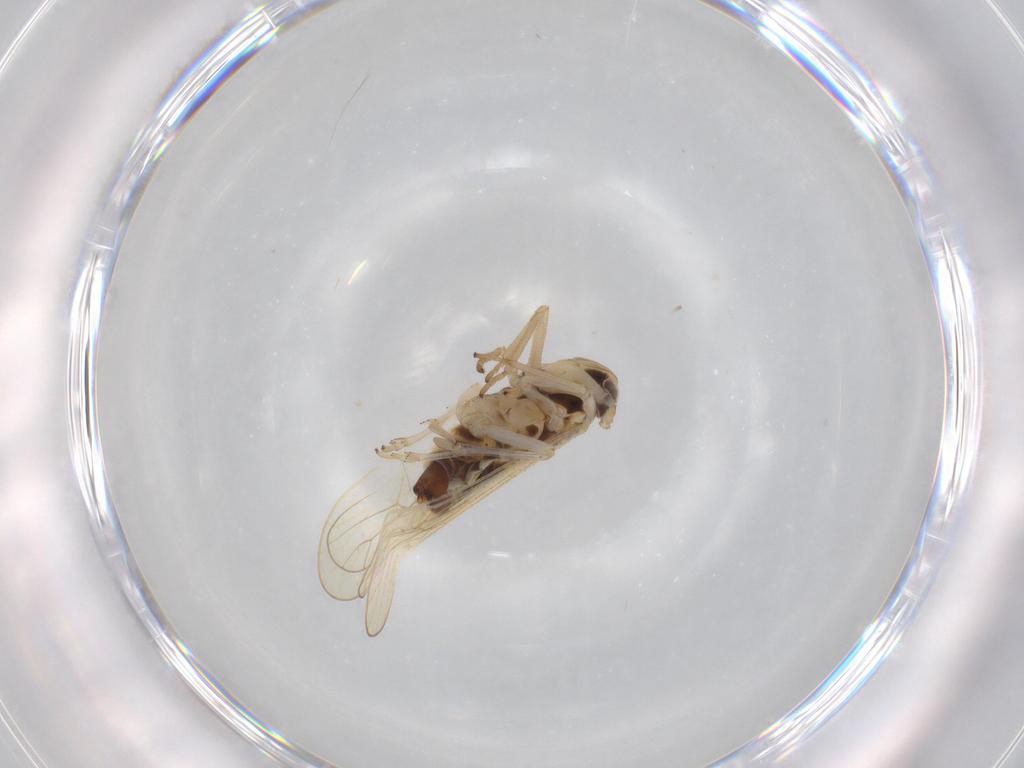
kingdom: Animalia
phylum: Arthropoda
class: Insecta
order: Hemiptera
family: Delphacidae
